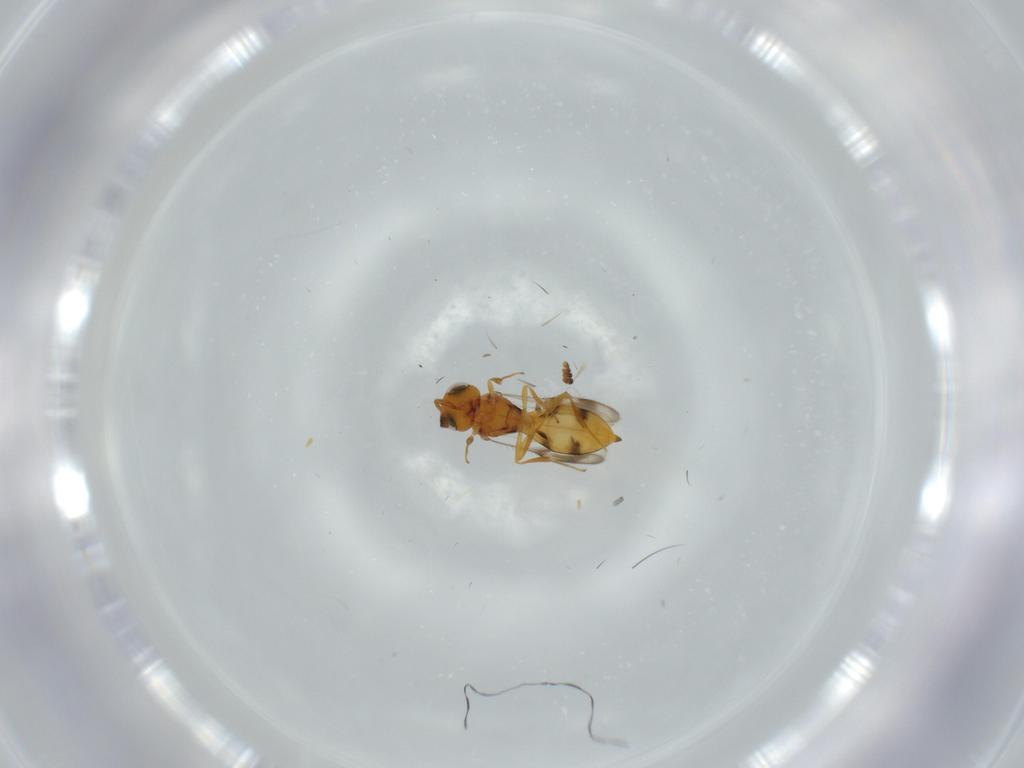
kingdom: Animalia
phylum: Arthropoda
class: Insecta
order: Hymenoptera
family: Scelionidae
